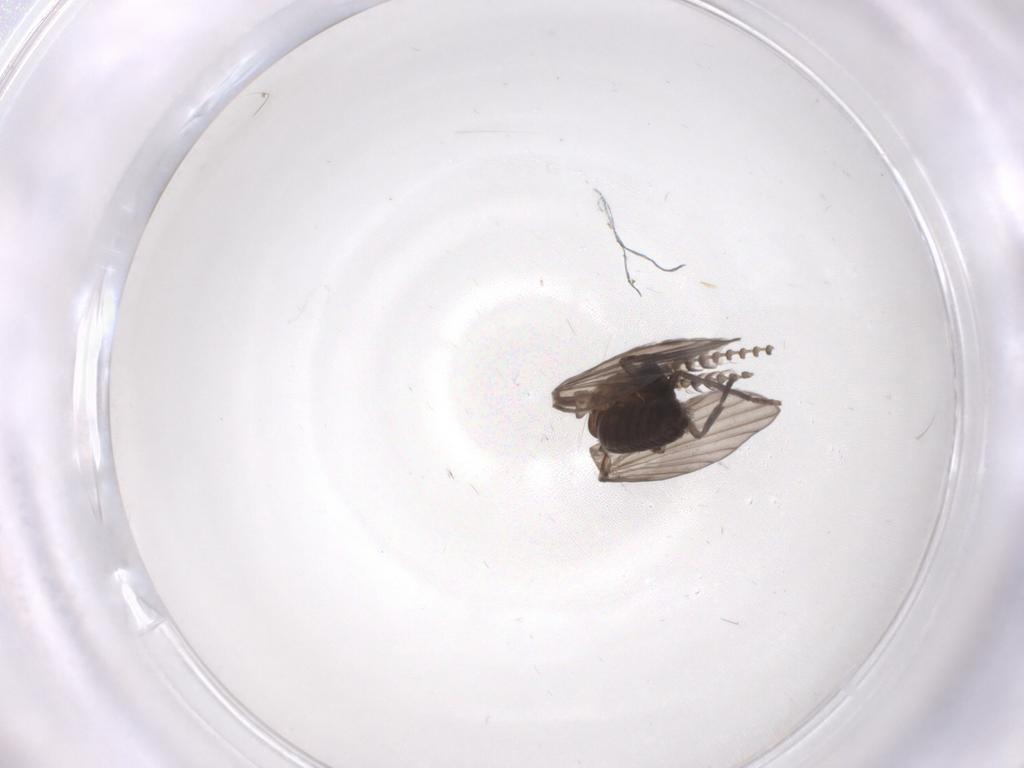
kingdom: Animalia
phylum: Arthropoda
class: Insecta
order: Diptera
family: Psychodidae
